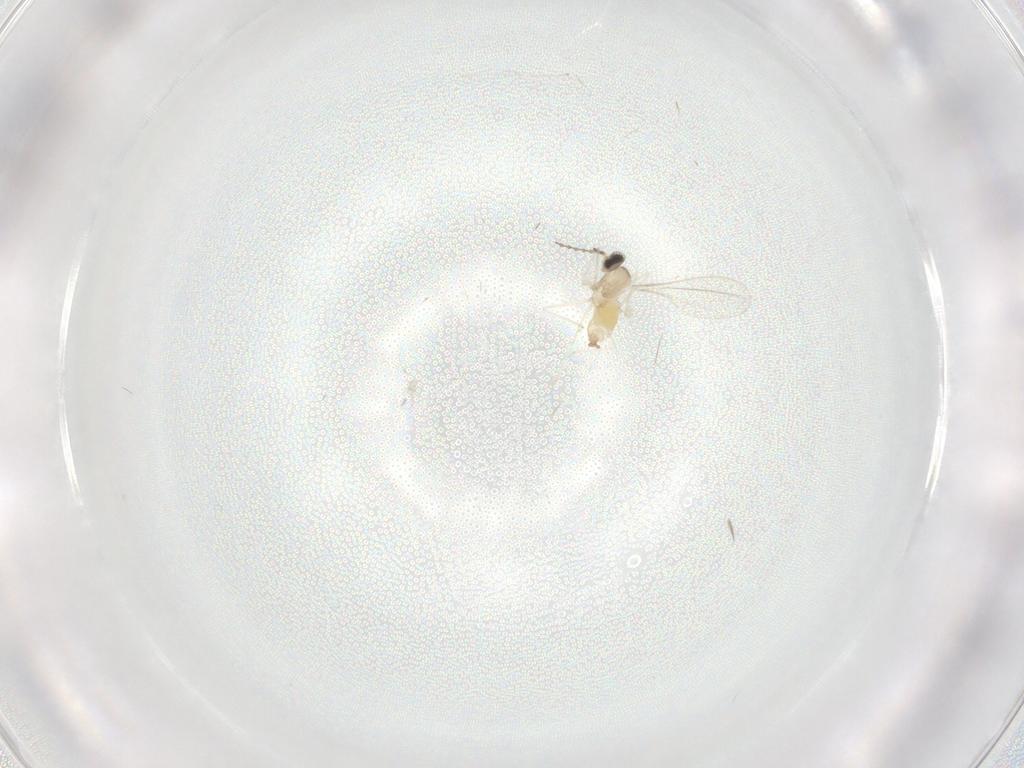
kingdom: Animalia
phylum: Arthropoda
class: Insecta
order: Diptera
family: Cecidomyiidae
